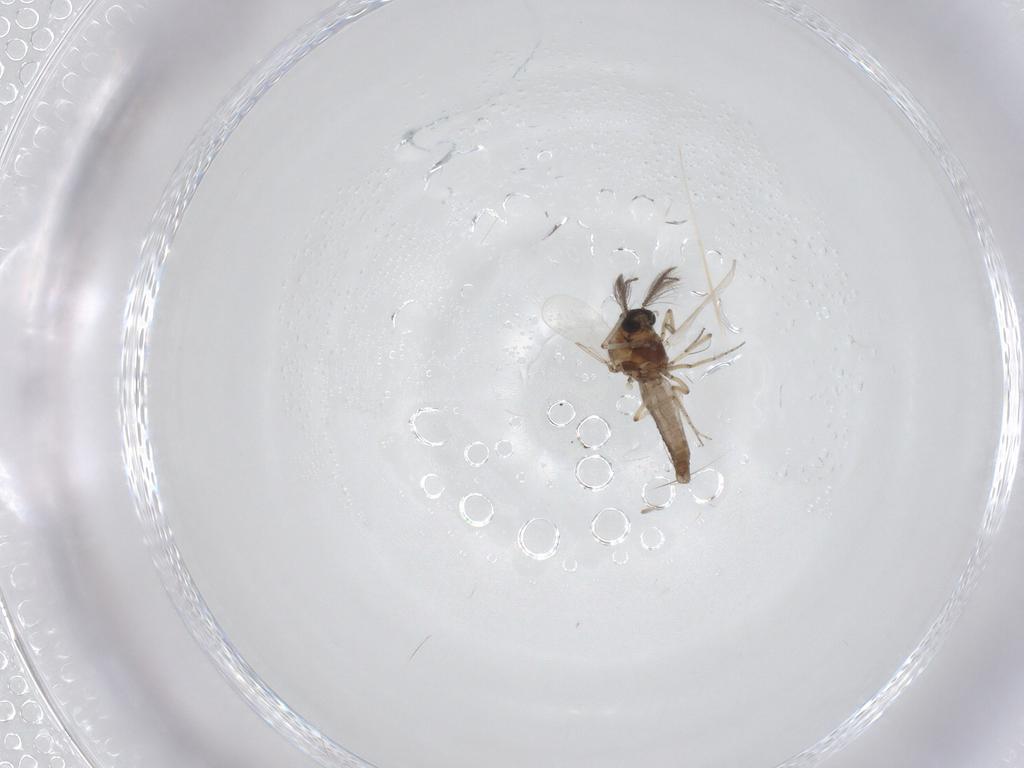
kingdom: Animalia
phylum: Arthropoda
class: Insecta
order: Diptera
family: Ceratopogonidae
